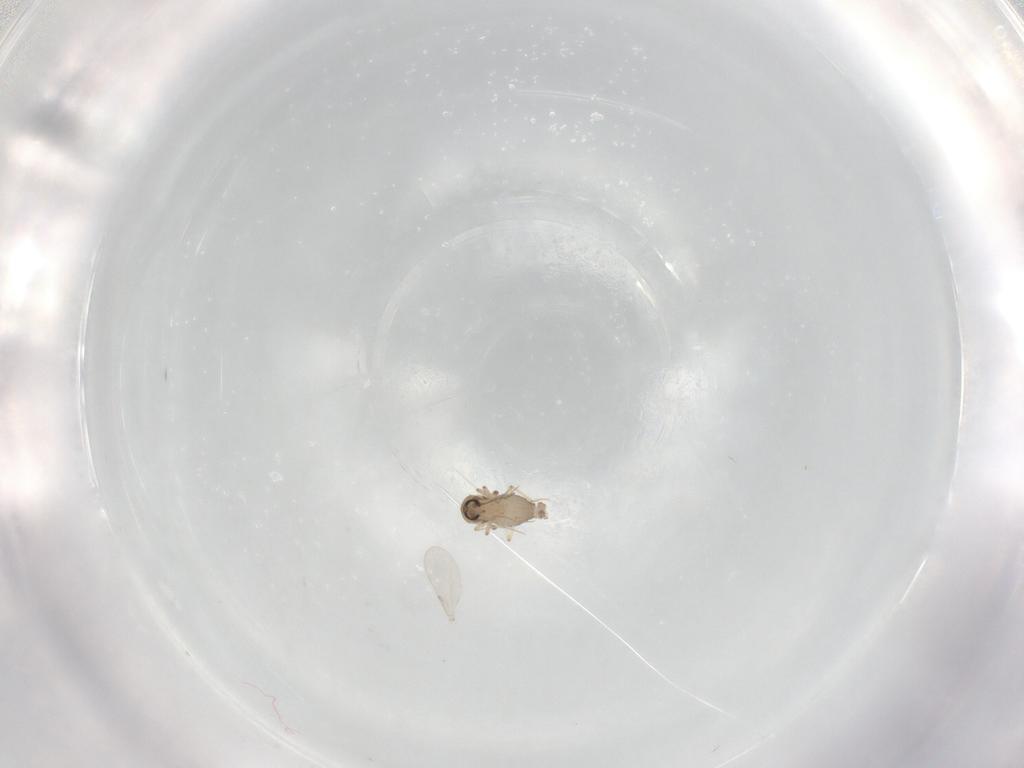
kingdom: Animalia
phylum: Arthropoda
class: Insecta
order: Diptera
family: Ceratopogonidae
